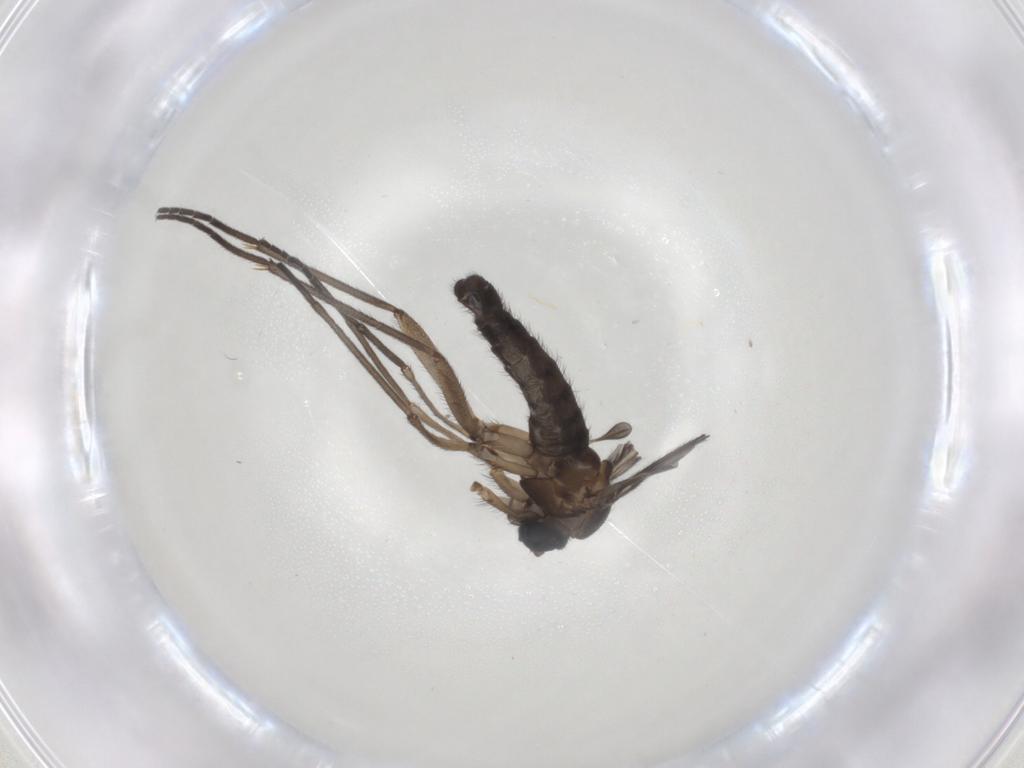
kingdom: Animalia
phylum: Arthropoda
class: Insecta
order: Diptera
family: Sciaridae
